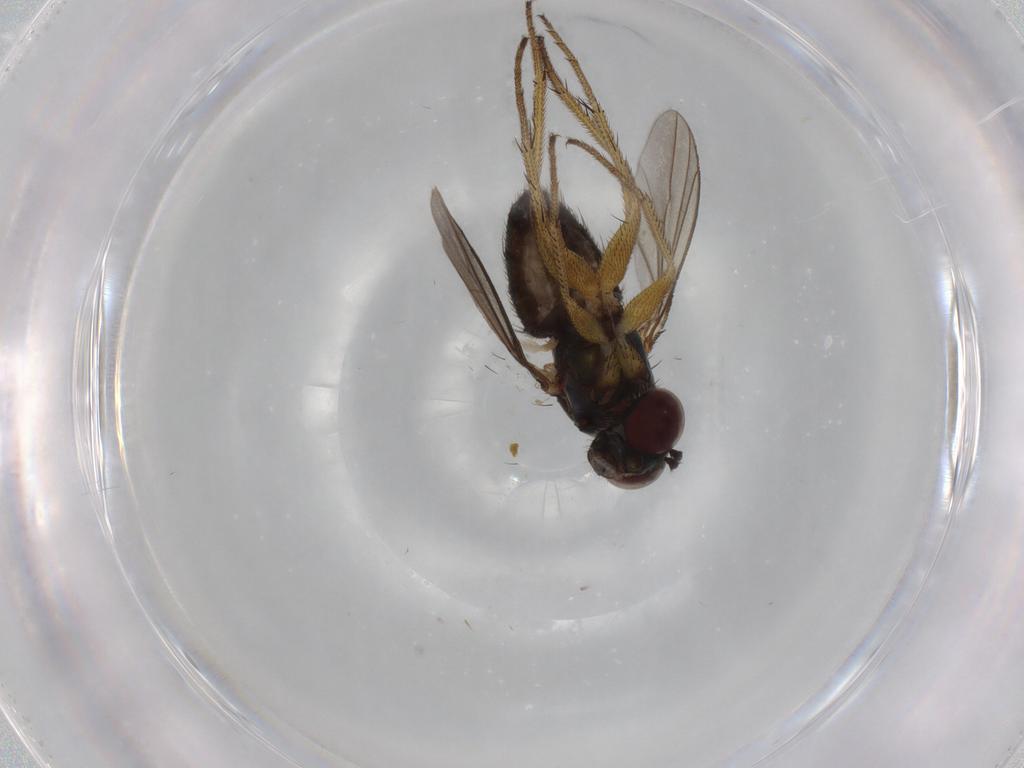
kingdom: Animalia
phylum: Arthropoda
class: Insecta
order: Diptera
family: Dolichopodidae
